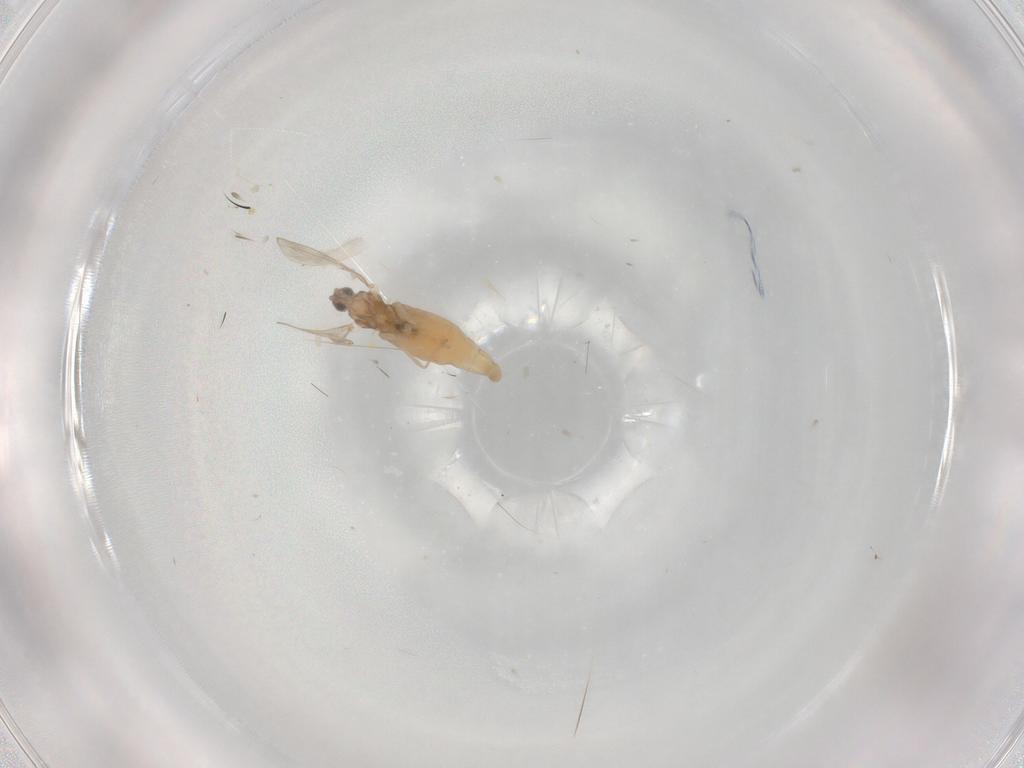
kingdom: Animalia
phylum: Arthropoda
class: Insecta
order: Diptera
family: Cecidomyiidae
